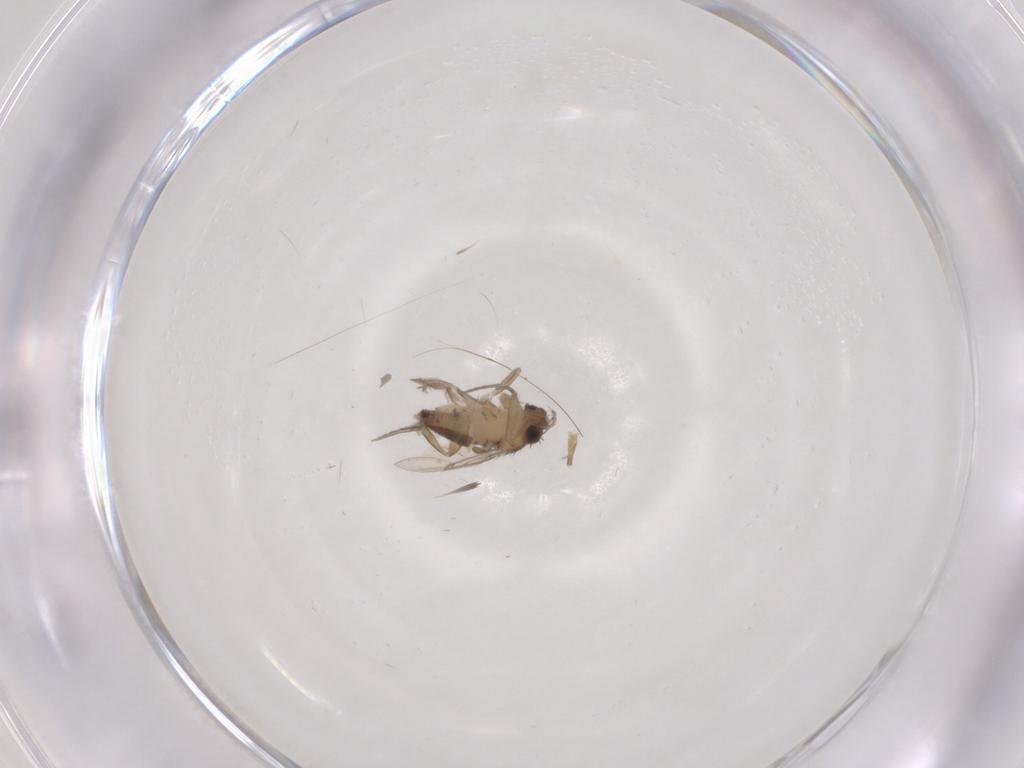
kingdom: Animalia
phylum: Arthropoda
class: Insecta
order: Diptera
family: Phoridae
